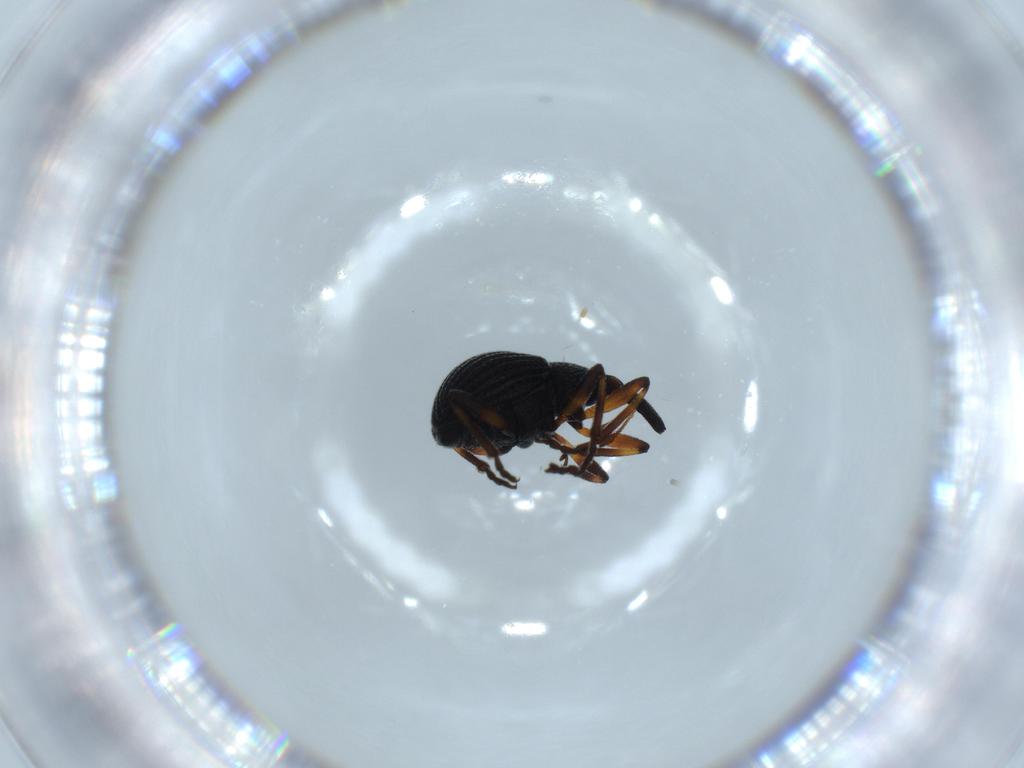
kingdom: Animalia
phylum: Arthropoda
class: Insecta
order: Coleoptera
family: Brentidae
